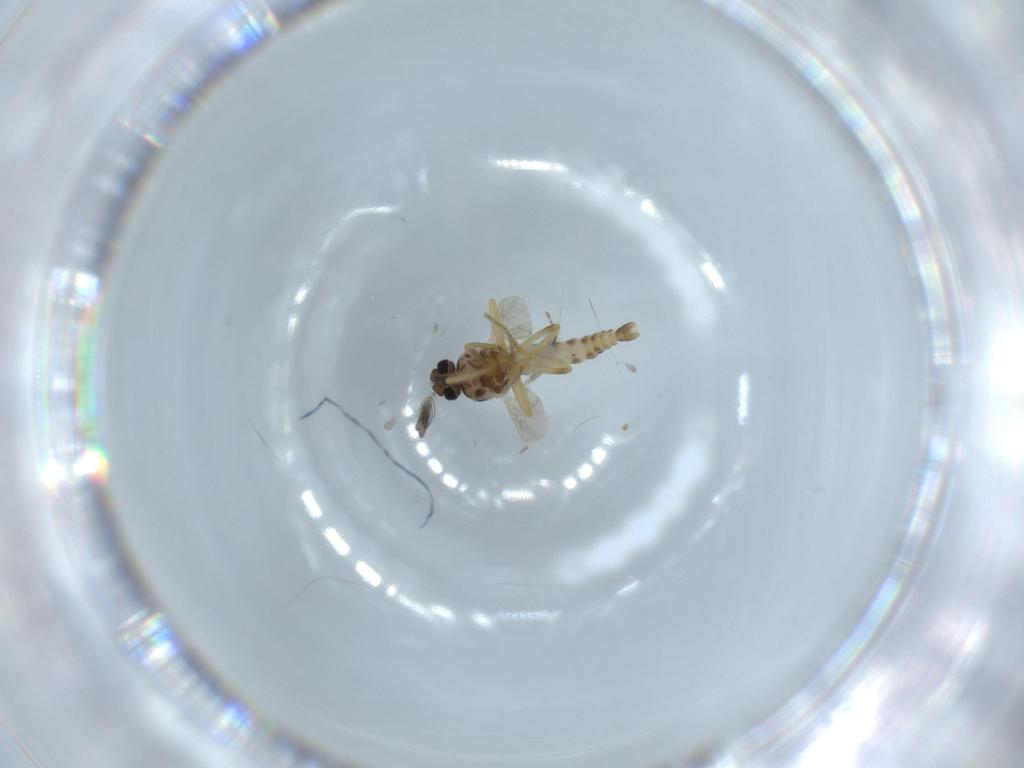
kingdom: Animalia
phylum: Arthropoda
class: Insecta
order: Diptera
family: Ceratopogonidae
